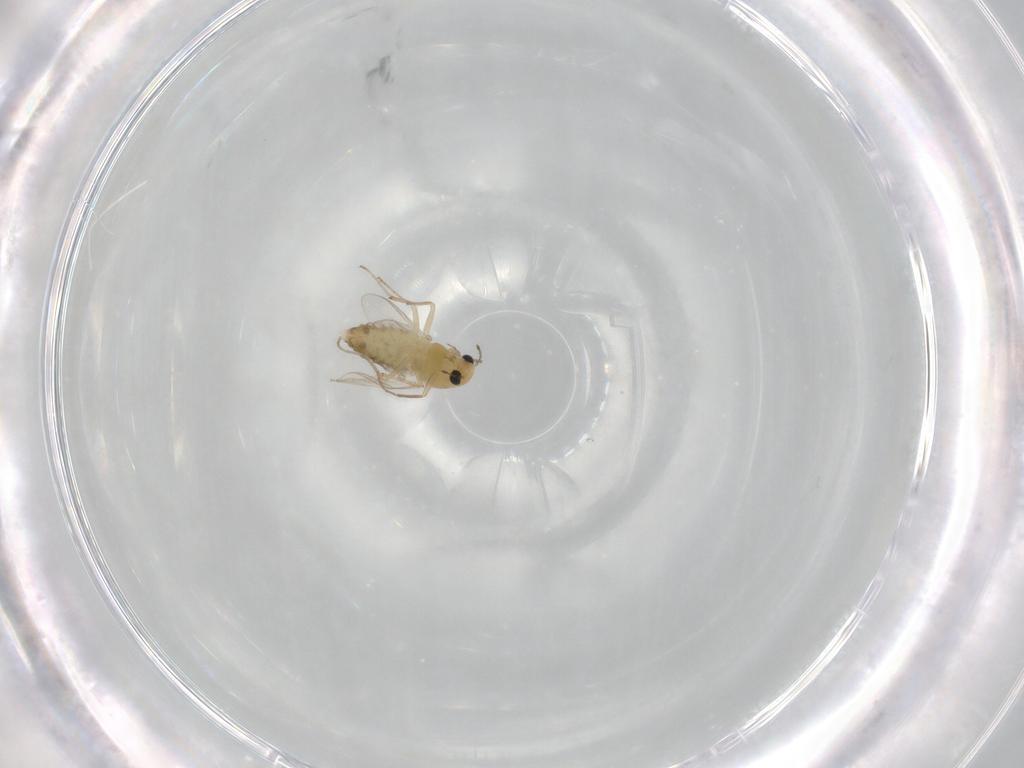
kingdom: Animalia
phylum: Arthropoda
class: Insecta
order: Diptera
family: Chironomidae
